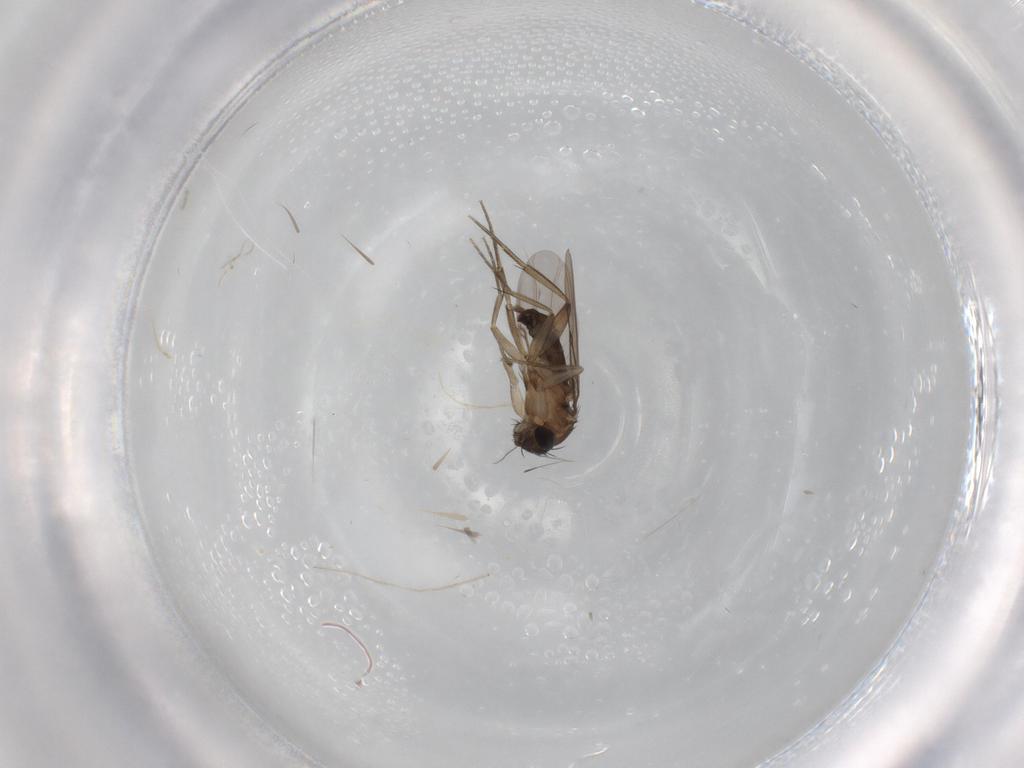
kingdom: Animalia
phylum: Arthropoda
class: Insecta
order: Diptera
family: Phoridae
